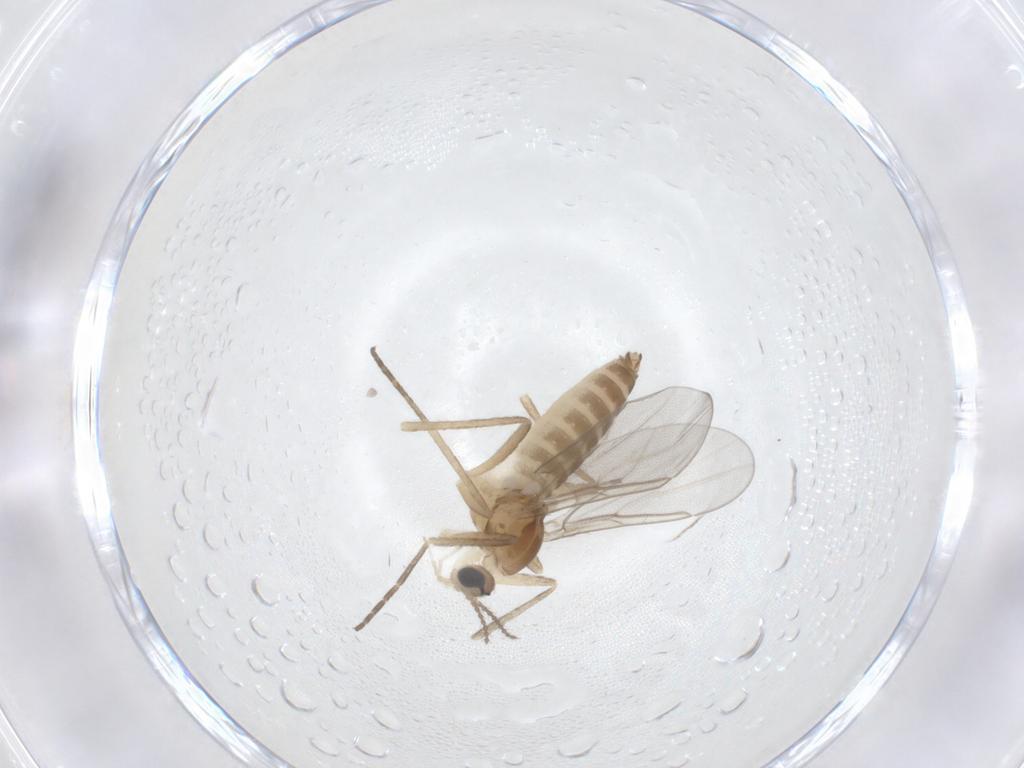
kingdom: Animalia
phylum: Arthropoda
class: Insecta
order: Diptera
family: Cecidomyiidae
